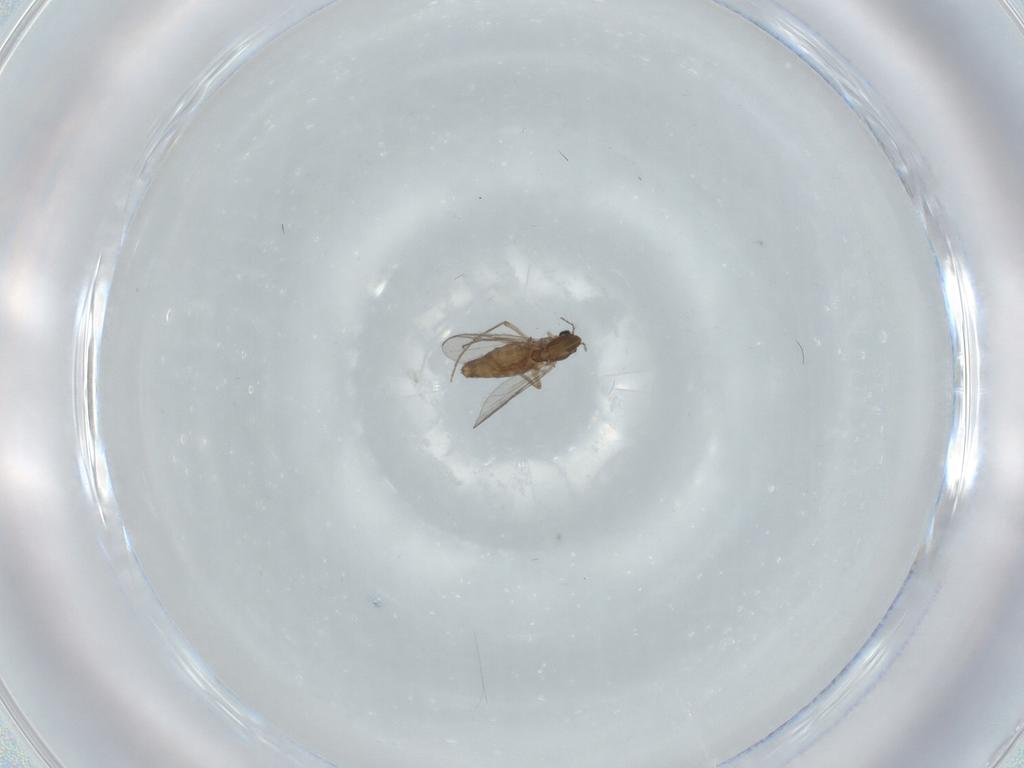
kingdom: Animalia
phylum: Arthropoda
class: Insecta
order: Diptera
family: Chironomidae
